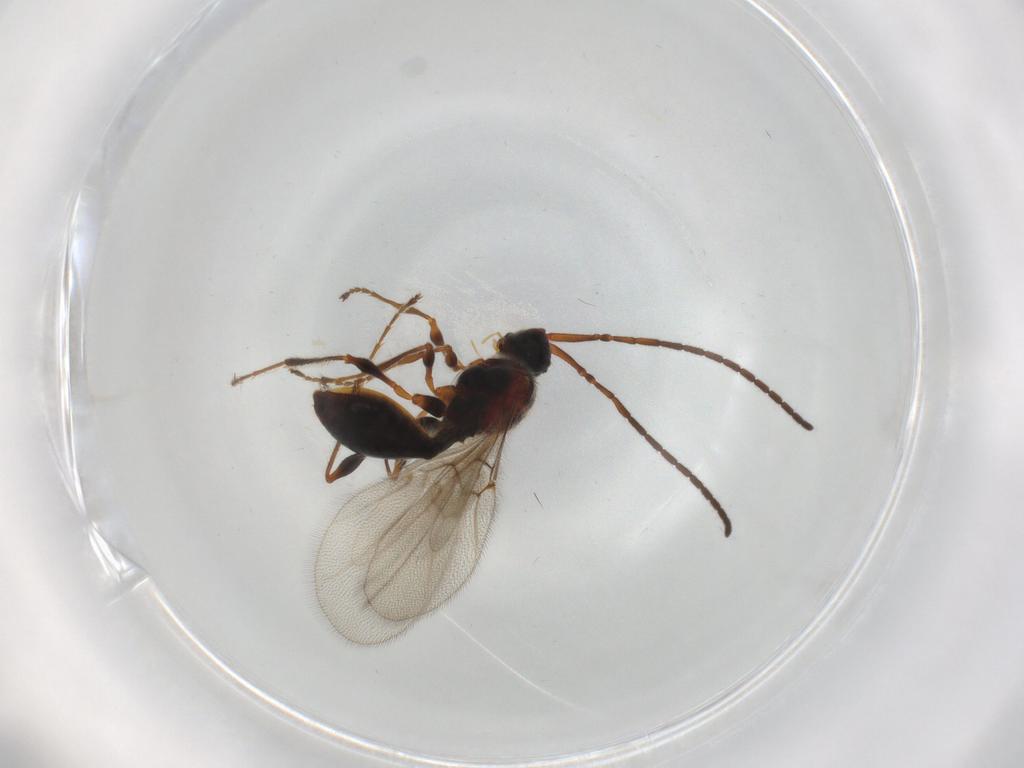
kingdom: Animalia
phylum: Arthropoda
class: Insecta
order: Hymenoptera
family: Diapriidae
